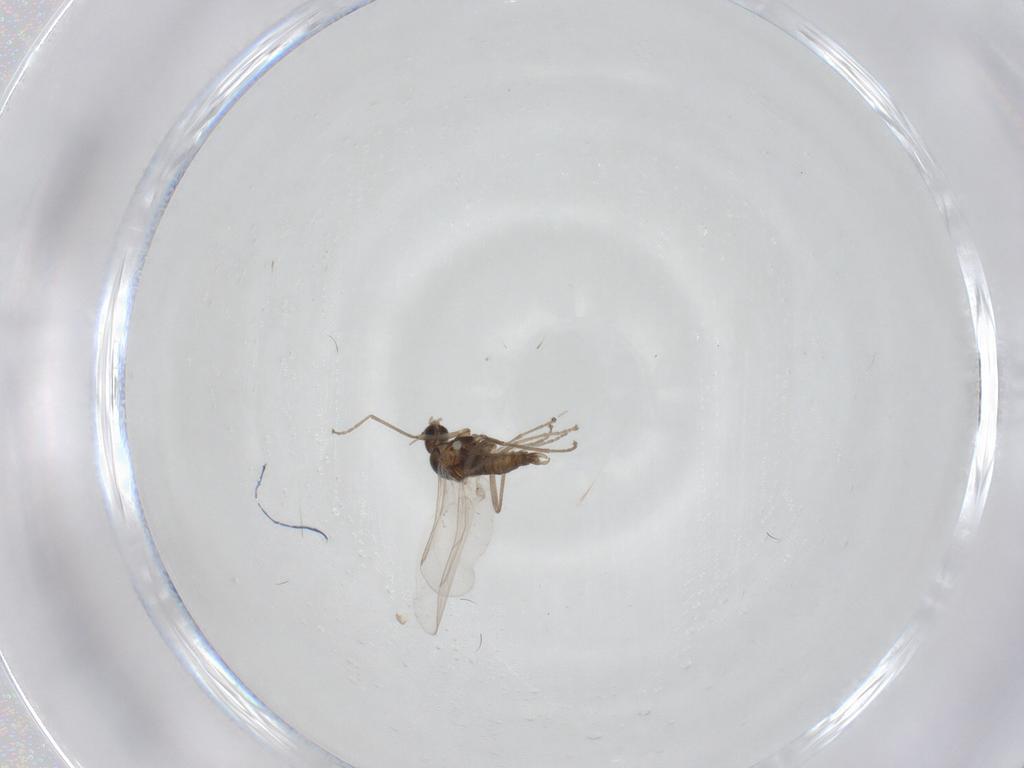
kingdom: Animalia
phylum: Arthropoda
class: Insecta
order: Diptera
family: Cecidomyiidae
